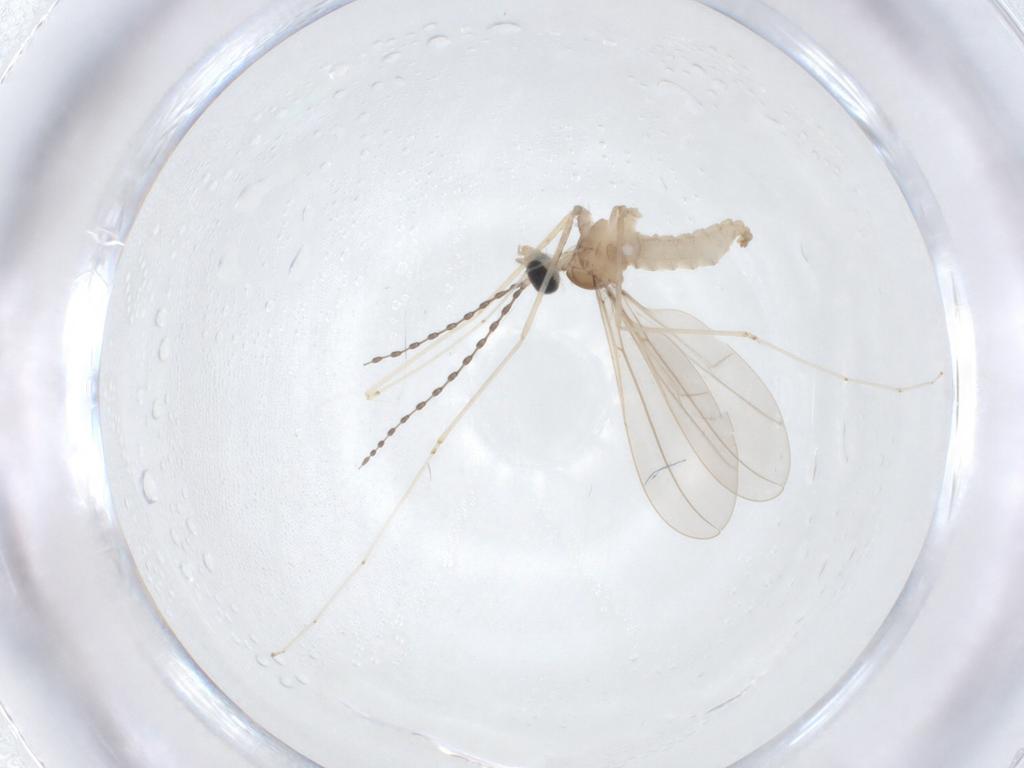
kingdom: Animalia
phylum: Arthropoda
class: Insecta
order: Diptera
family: Cecidomyiidae
